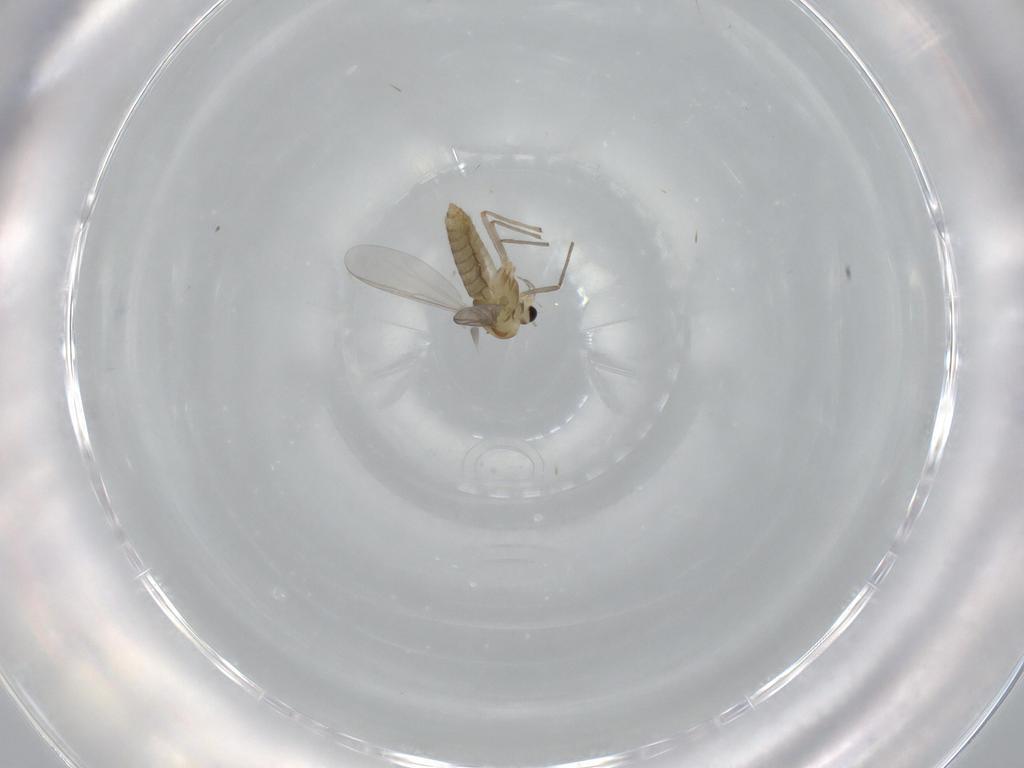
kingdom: Animalia
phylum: Arthropoda
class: Insecta
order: Diptera
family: Chironomidae
